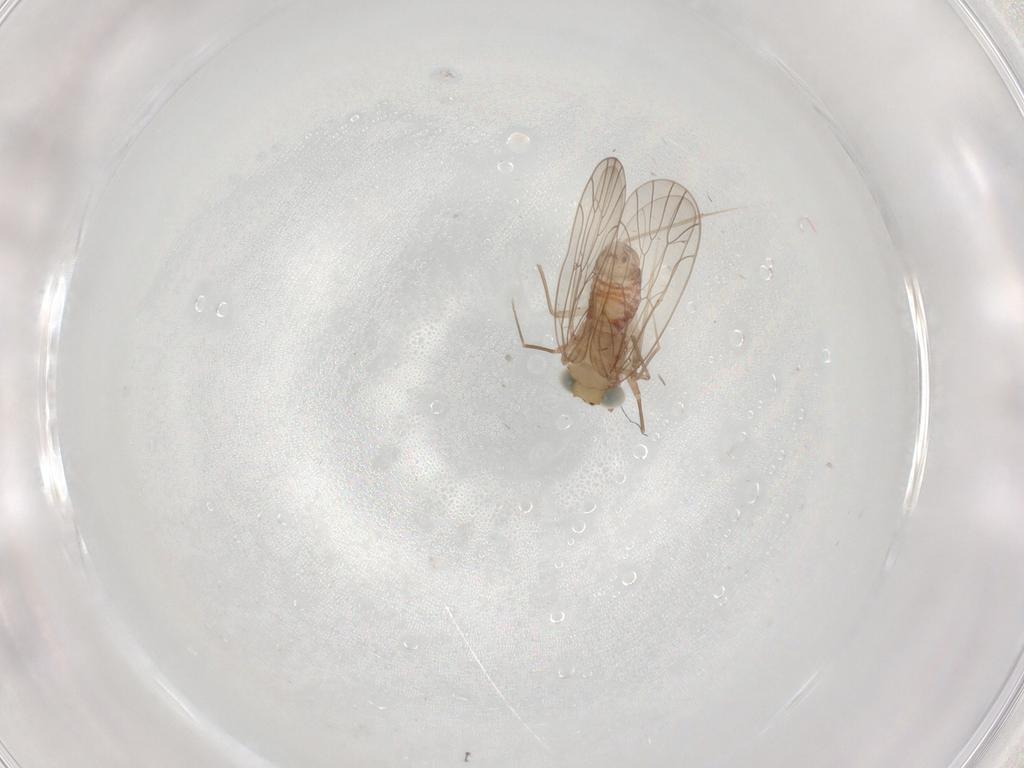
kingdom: Animalia
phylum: Arthropoda
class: Insecta
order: Psocodea
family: Amphientomidae
